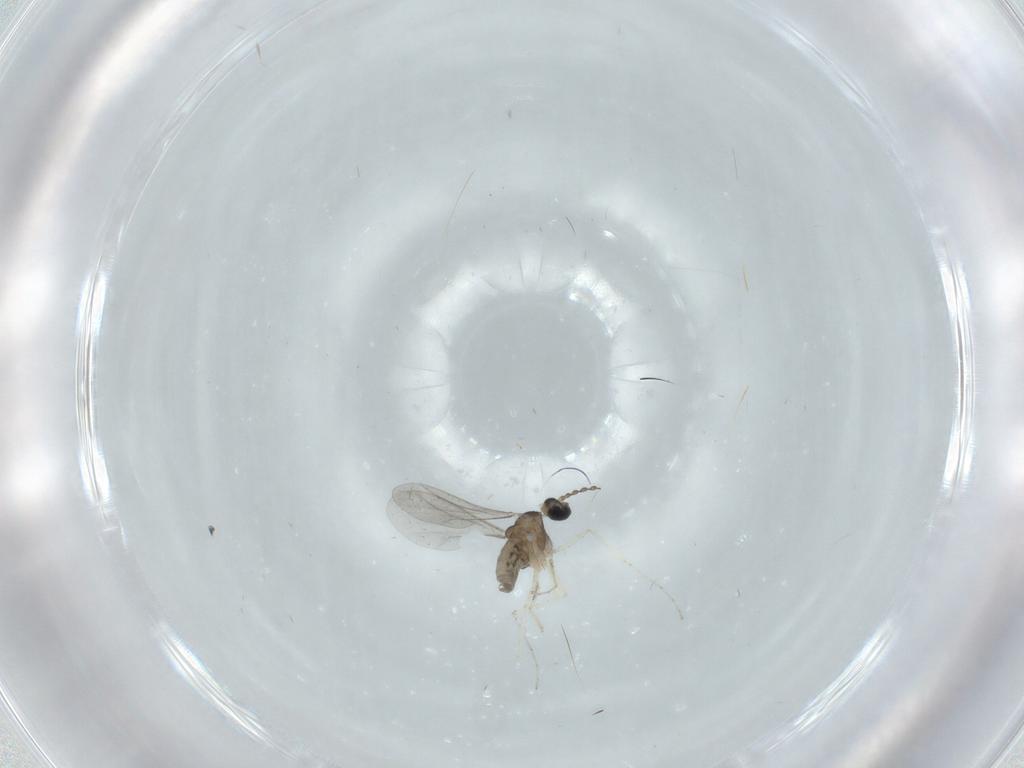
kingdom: Animalia
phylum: Arthropoda
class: Insecta
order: Diptera
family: Cecidomyiidae
